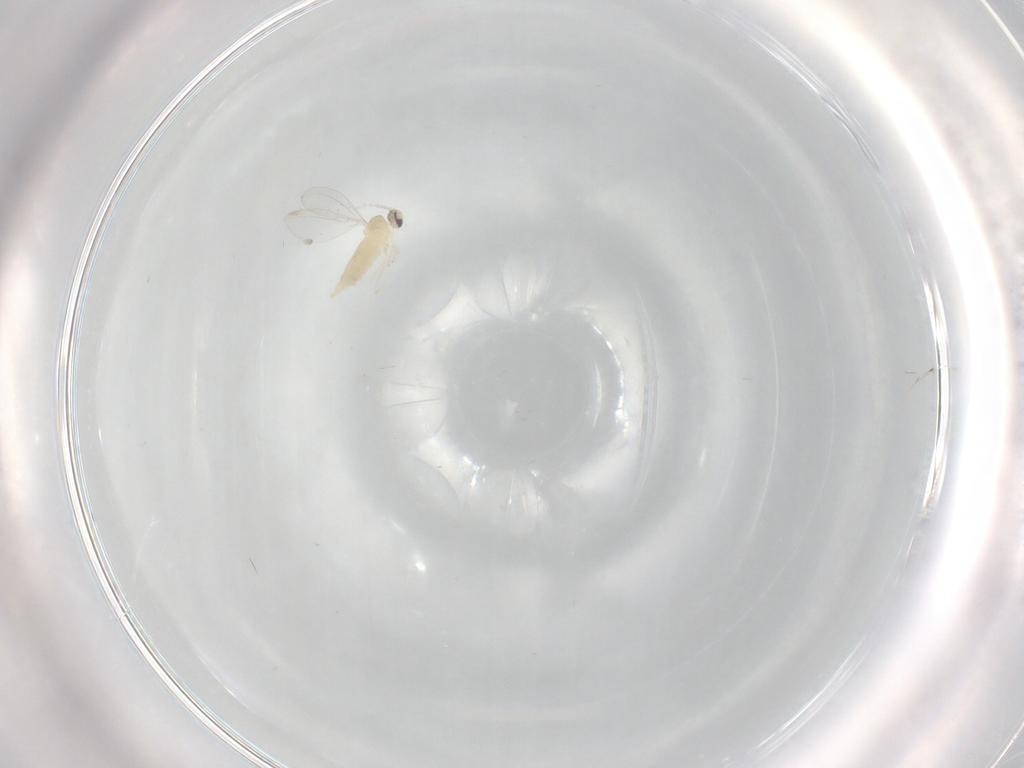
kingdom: Animalia
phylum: Arthropoda
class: Insecta
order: Diptera
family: Cecidomyiidae
